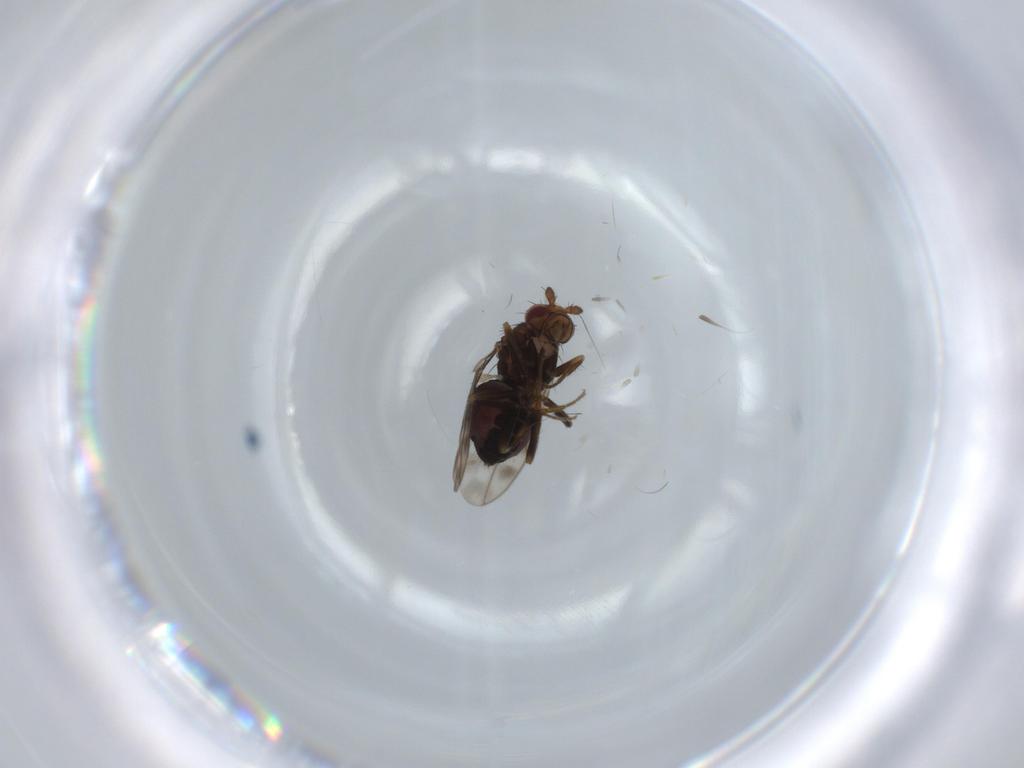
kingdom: Animalia
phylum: Arthropoda
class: Insecta
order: Diptera
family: Sphaeroceridae
